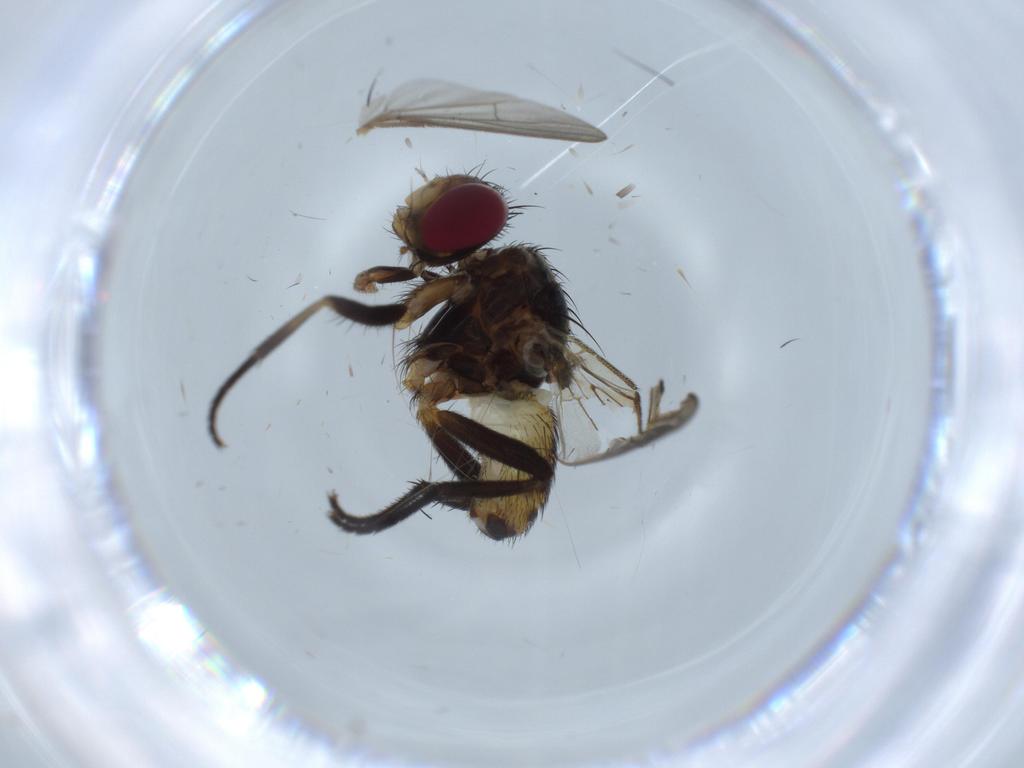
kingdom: Animalia
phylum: Arthropoda
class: Insecta
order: Diptera
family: Anthomyiidae
